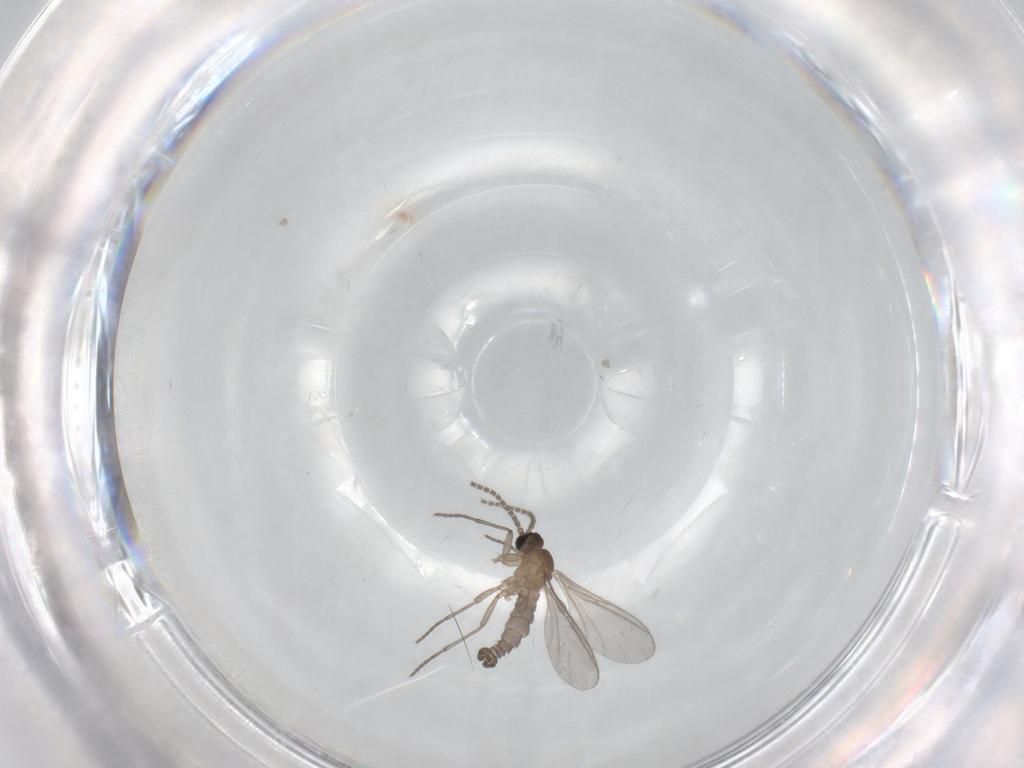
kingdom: Animalia
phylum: Arthropoda
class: Insecta
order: Diptera
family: Sciaridae
